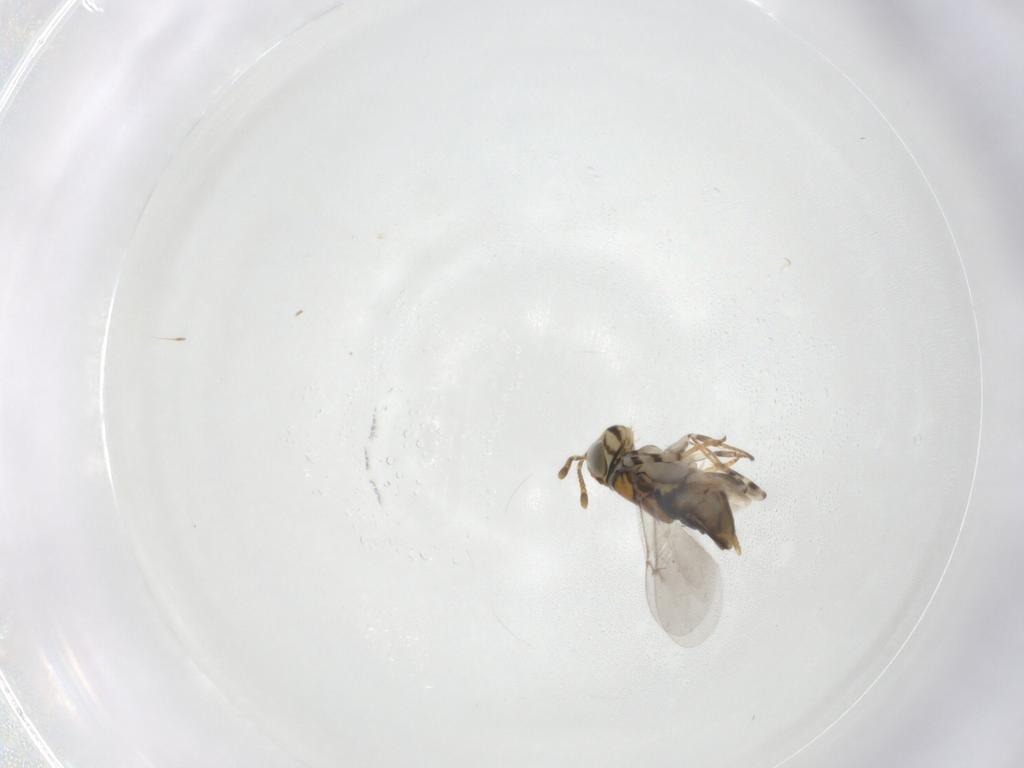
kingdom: Animalia
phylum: Arthropoda
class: Insecta
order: Hymenoptera
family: Encyrtidae
